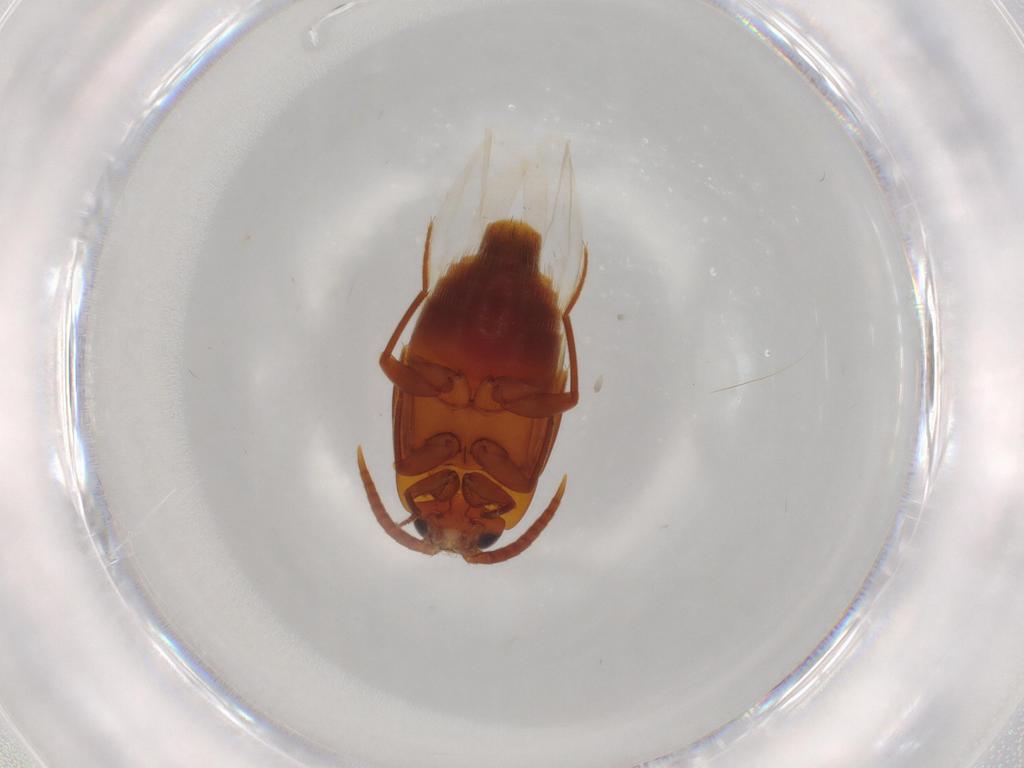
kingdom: Animalia
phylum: Arthropoda
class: Insecta
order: Coleoptera
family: Staphylinidae
